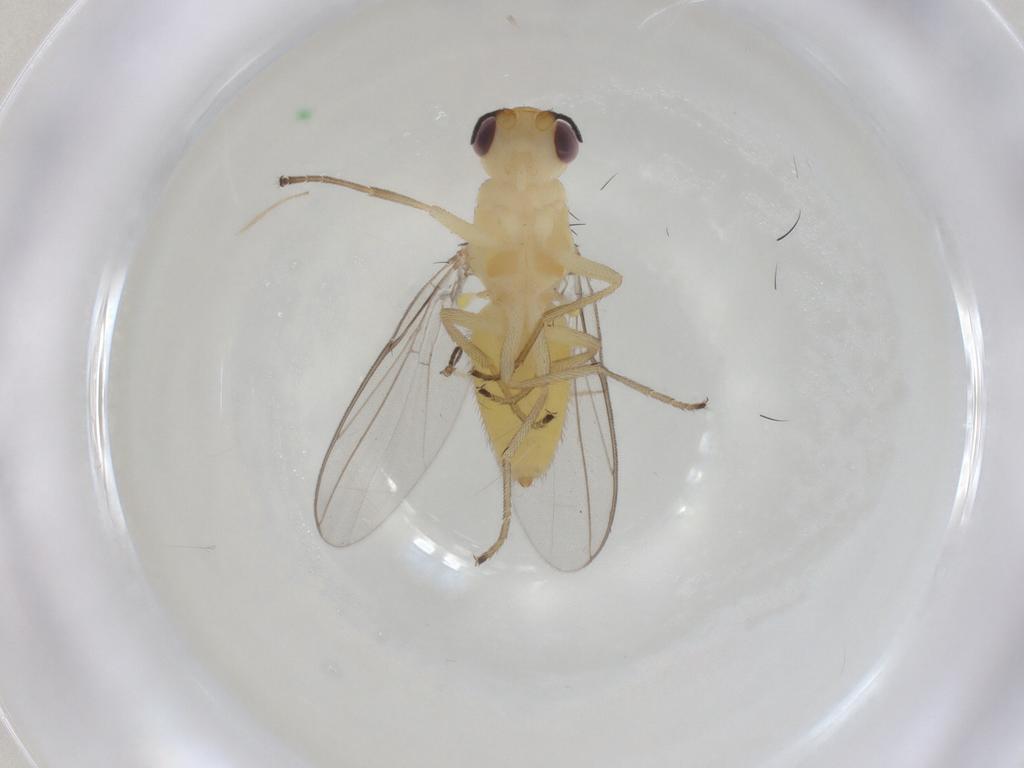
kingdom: Animalia
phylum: Arthropoda
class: Insecta
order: Diptera
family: Chloropidae
